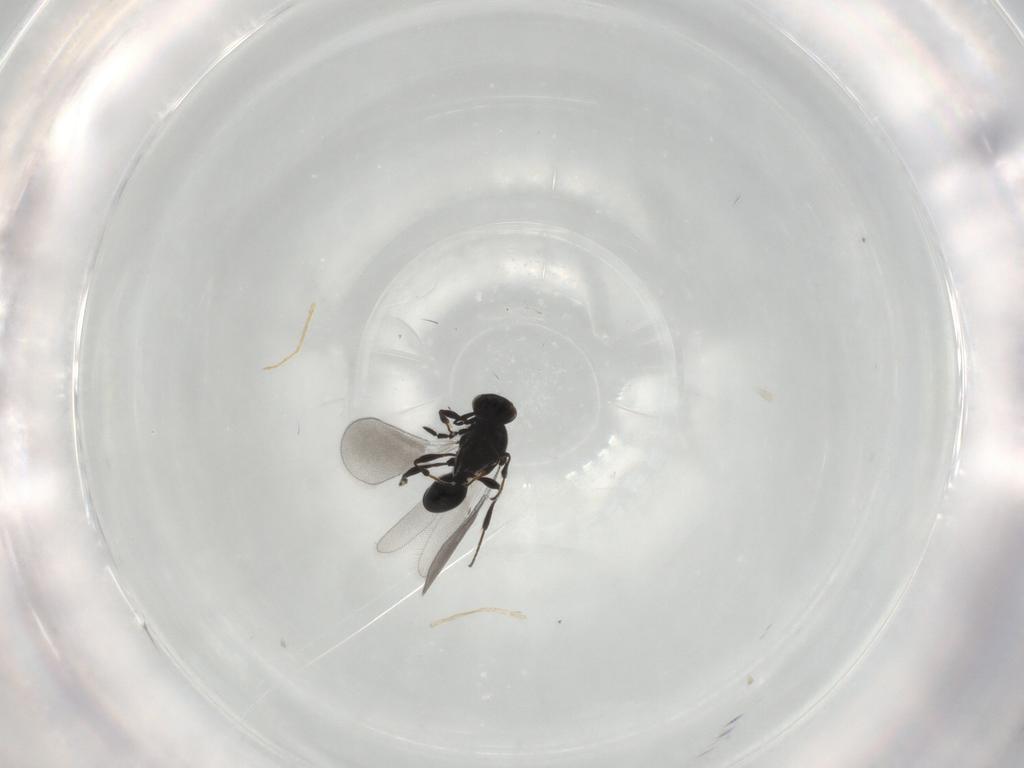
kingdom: Animalia
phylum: Arthropoda
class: Insecta
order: Hymenoptera
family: Platygastridae
